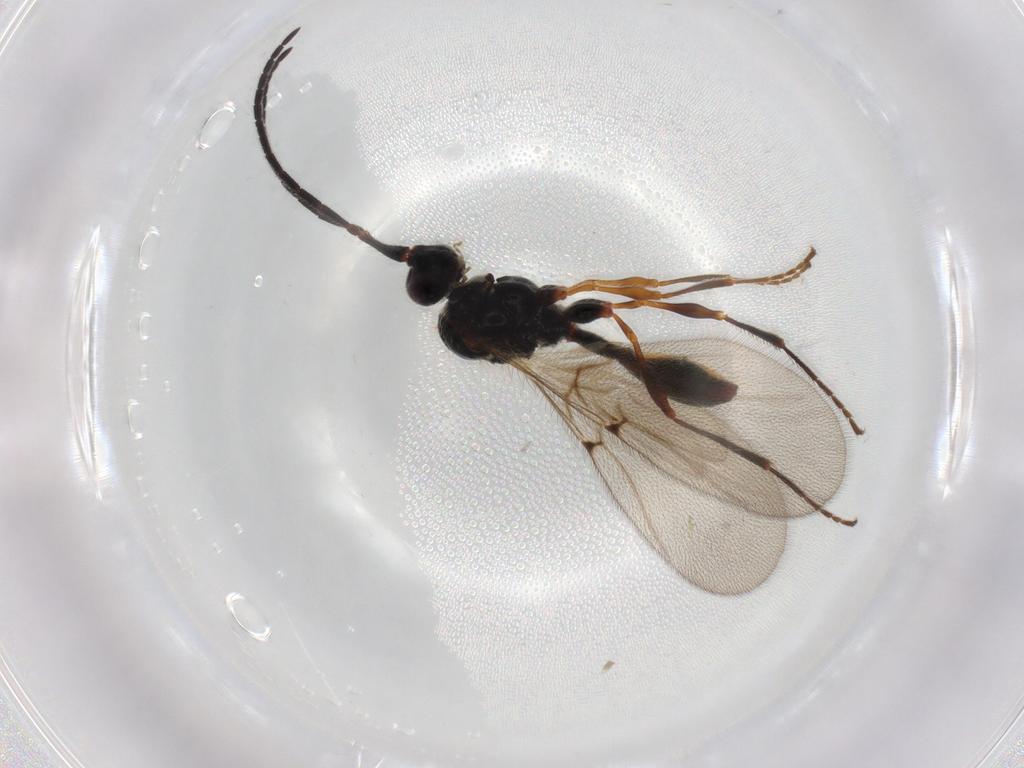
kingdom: Animalia
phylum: Arthropoda
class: Insecta
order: Hymenoptera
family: Diapriidae
